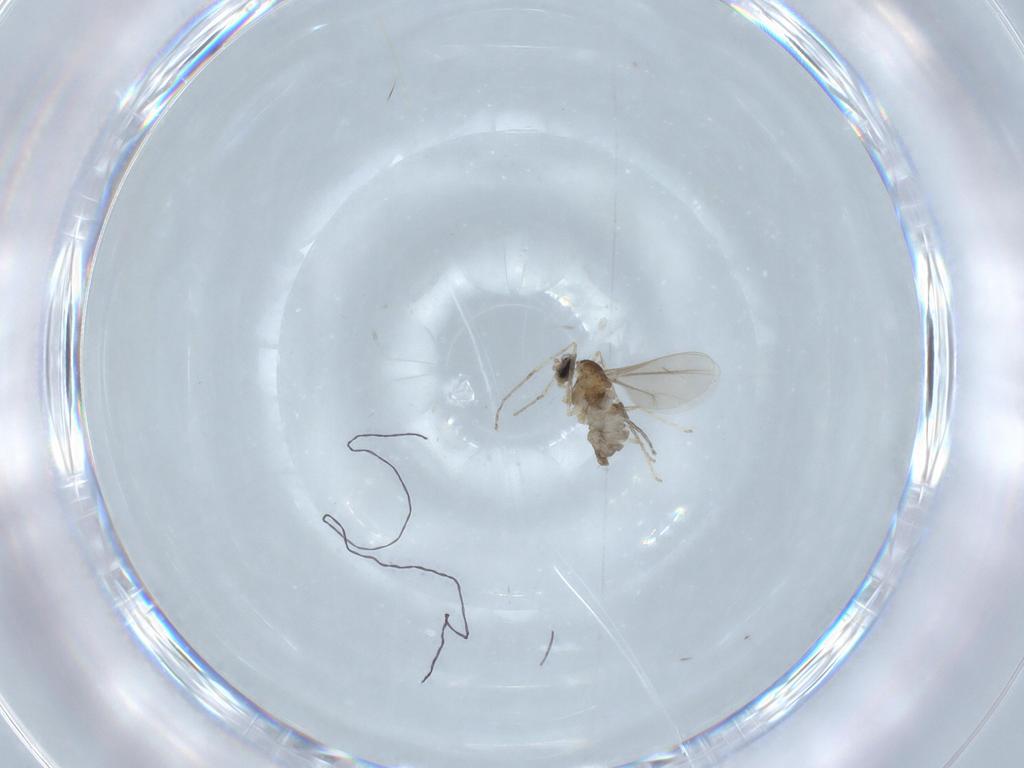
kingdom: Animalia
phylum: Arthropoda
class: Insecta
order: Diptera
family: Cecidomyiidae
